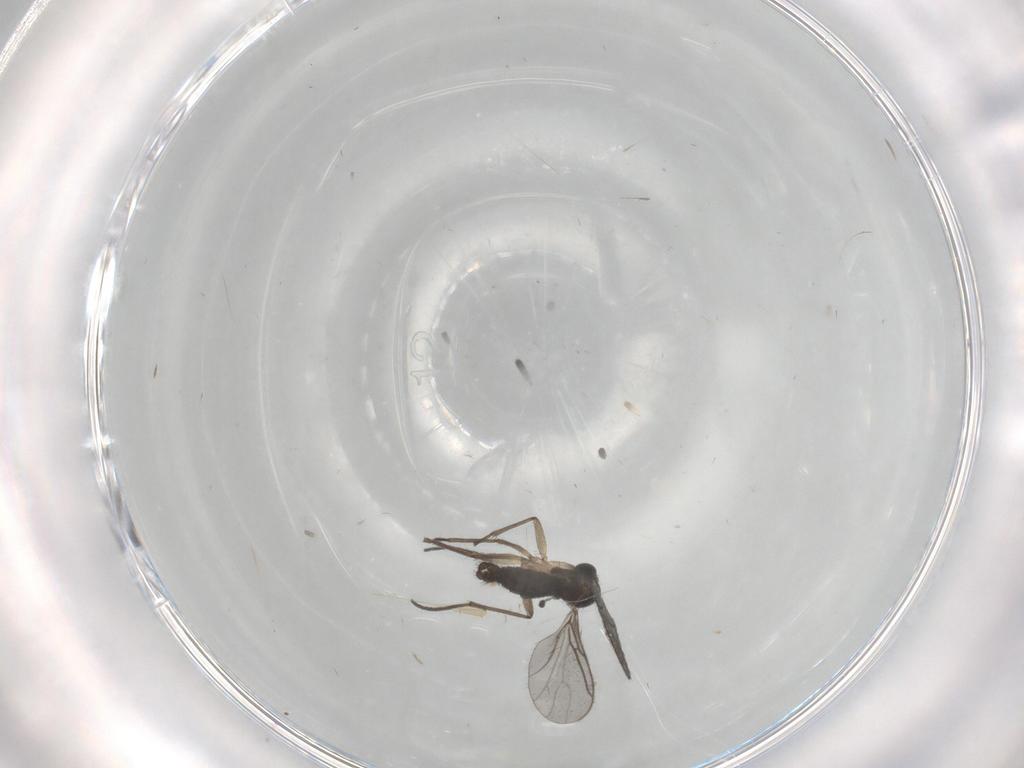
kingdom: Animalia
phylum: Arthropoda
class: Insecta
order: Diptera
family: Sciaridae
